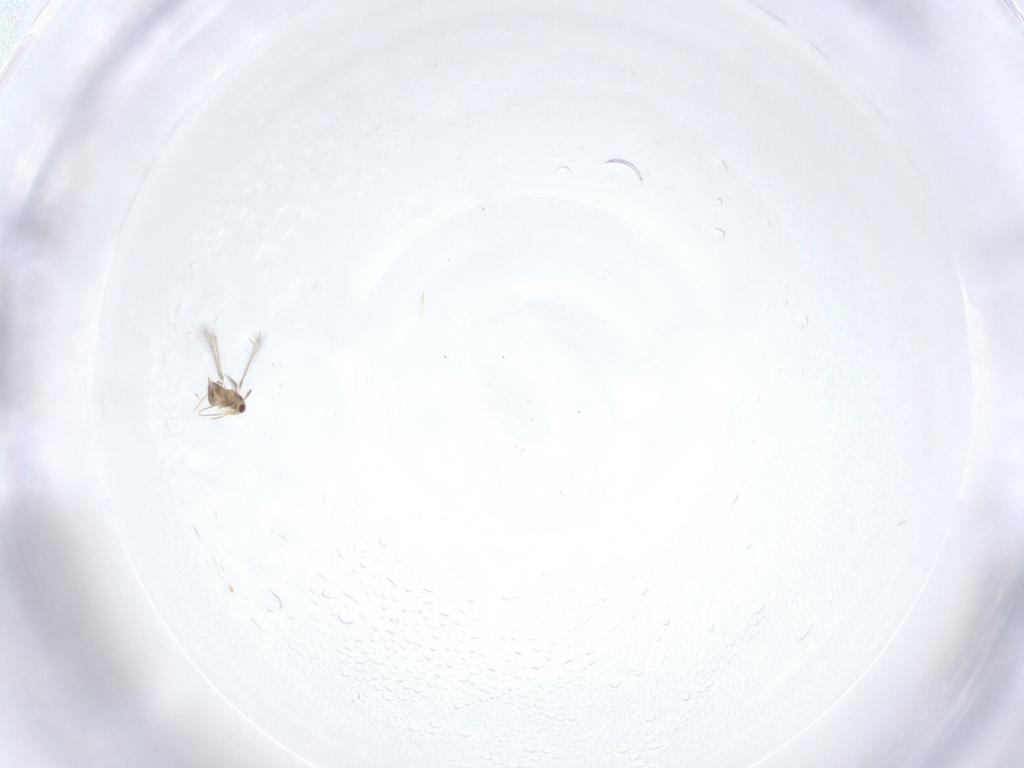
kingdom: Animalia
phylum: Arthropoda
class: Insecta
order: Hymenoptera
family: Mymaridae
